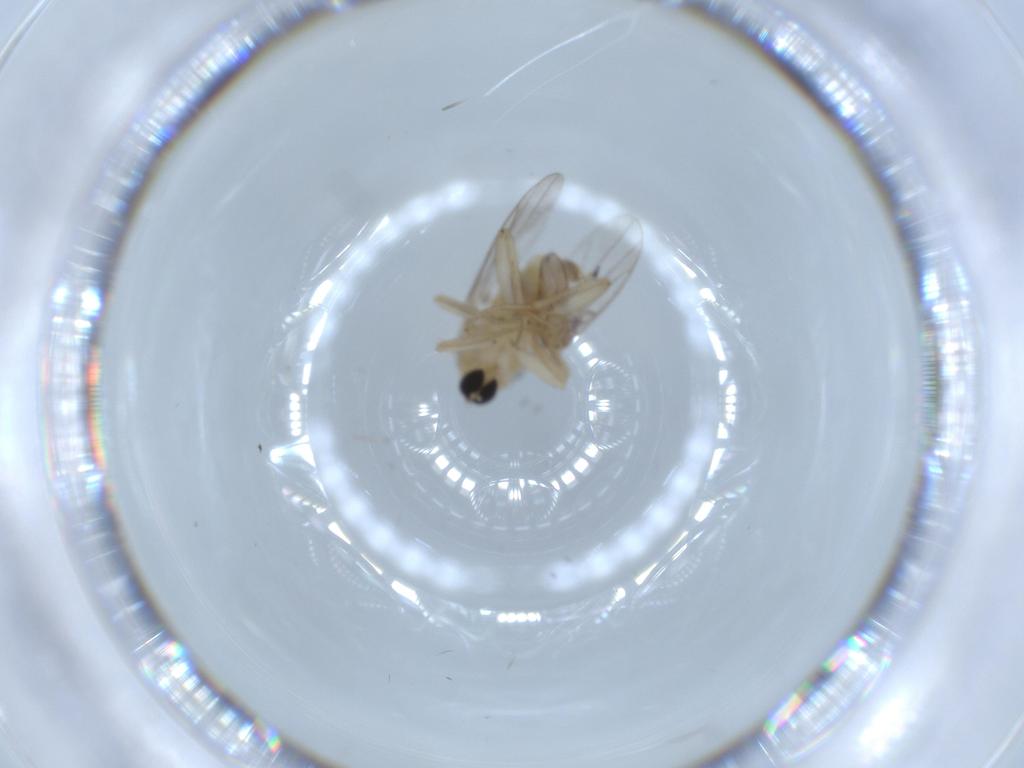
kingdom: Animalia
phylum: Arthropoda
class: Insecta
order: Diptera
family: Hybotidae
